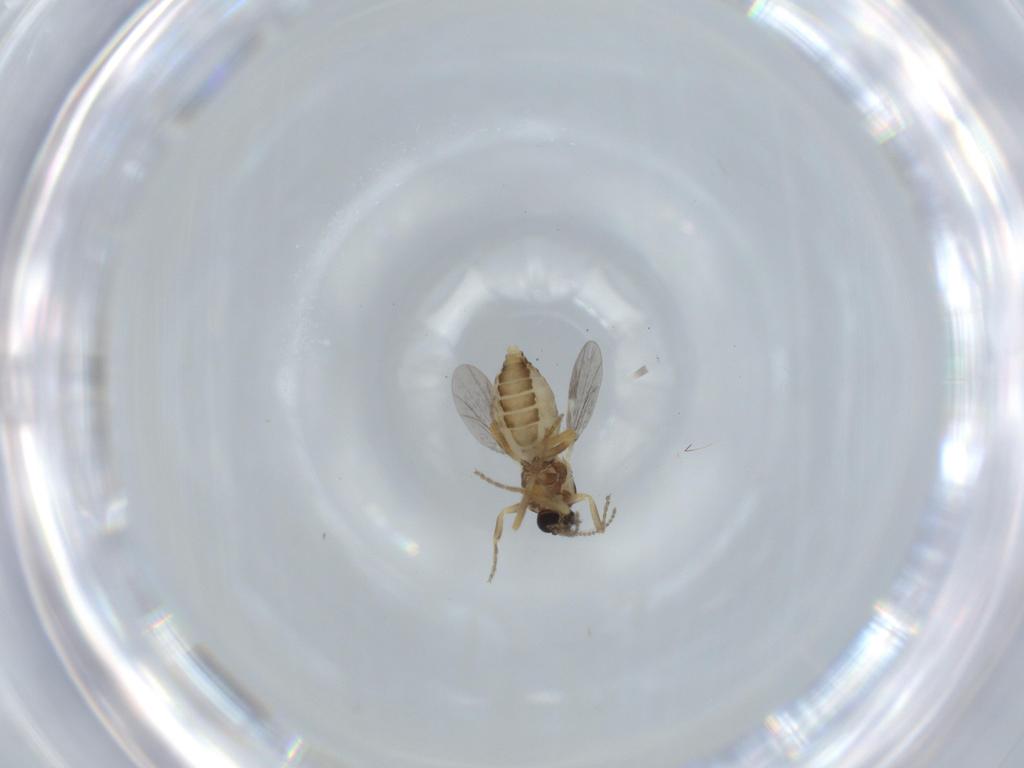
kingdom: Animalia
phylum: Arthropoda
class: Insecta
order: Diptera
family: Ceratopogonidae
